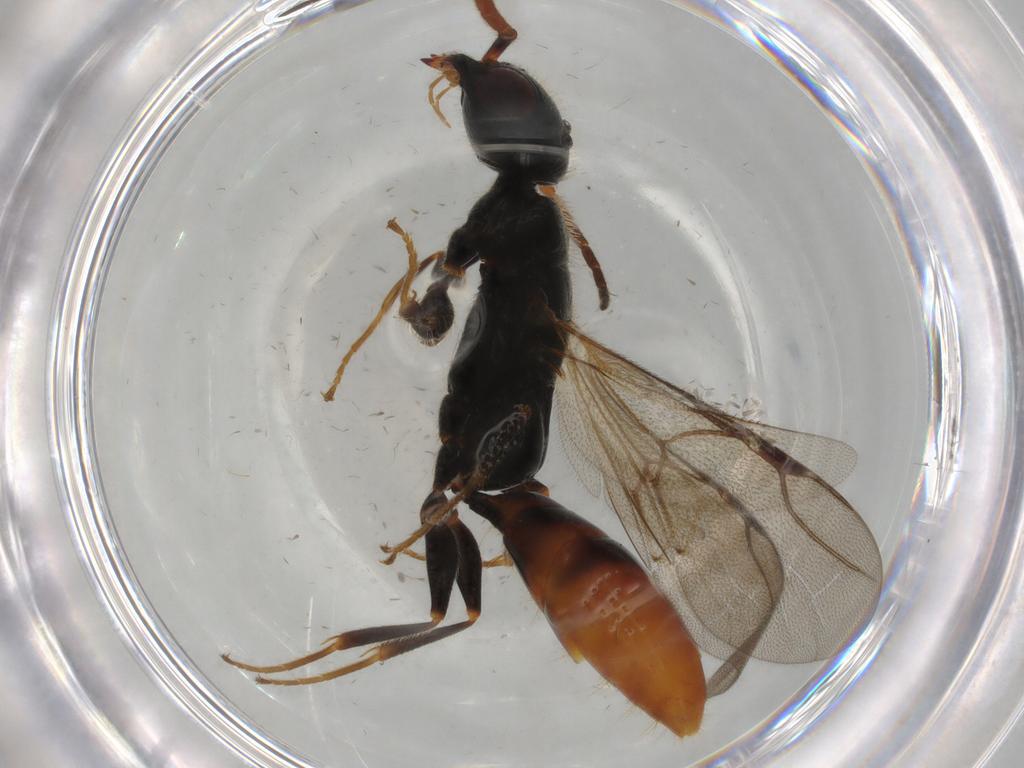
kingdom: Animalia
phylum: Arthropoda
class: Insecta
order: Hymenoptera
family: Bethylidae
